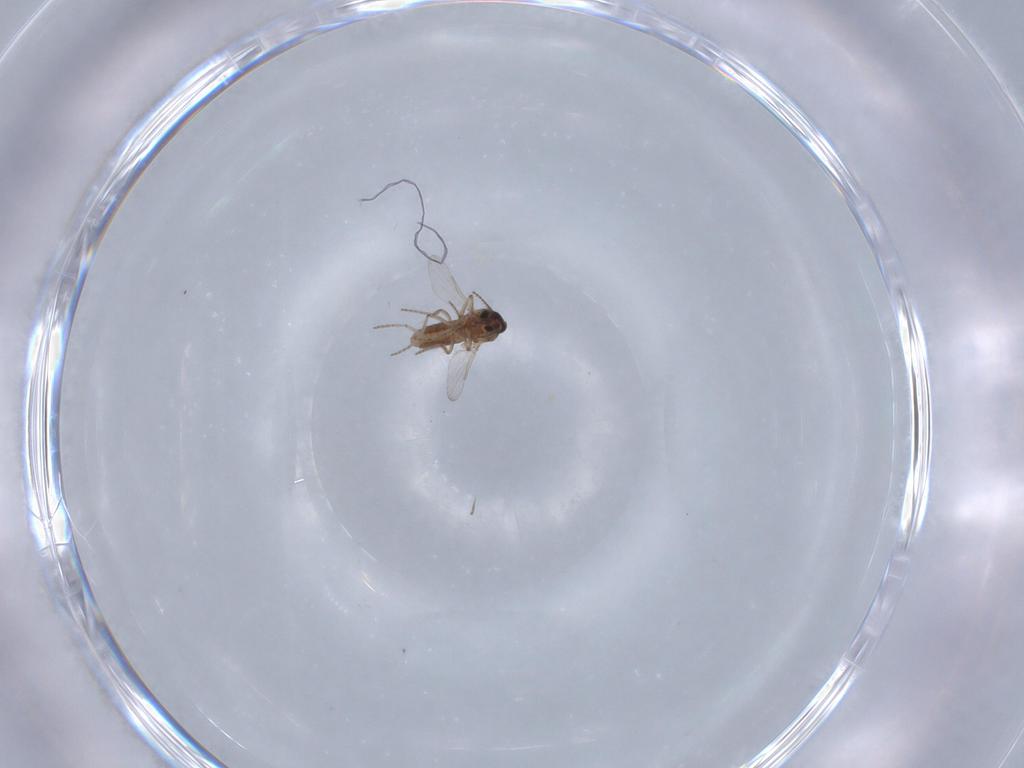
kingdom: Animalia
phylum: Arthropoda
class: Insecta
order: Diptera
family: Ceratopogonidae
